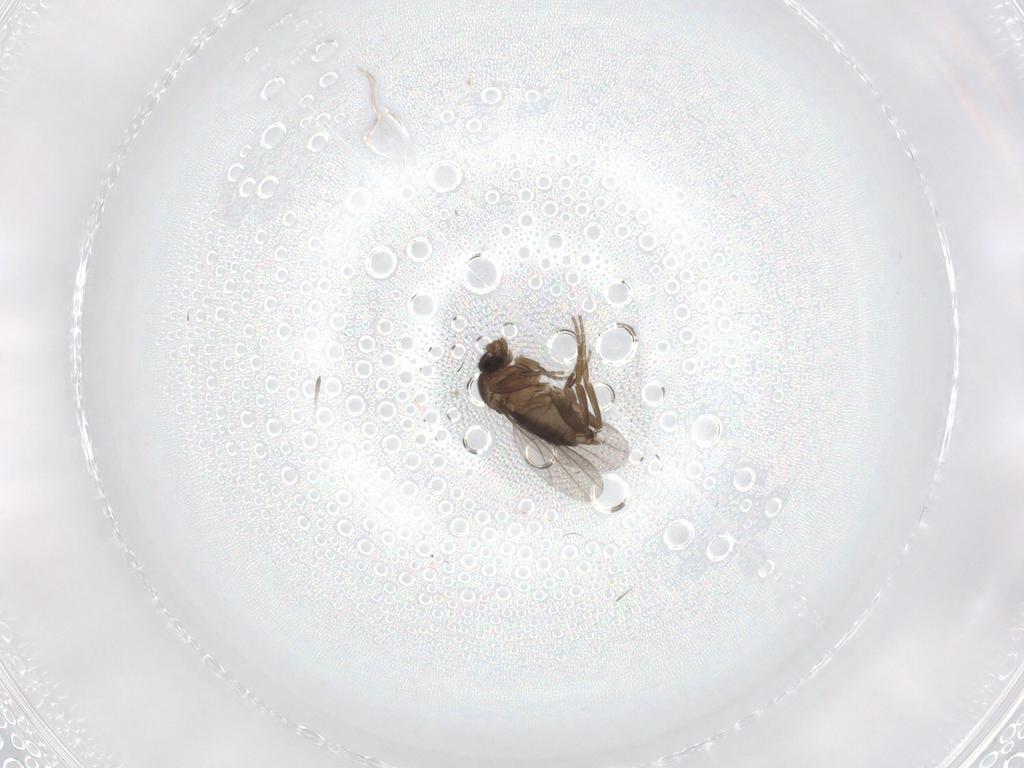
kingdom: Animalia
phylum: Arthropoda
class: Insecta
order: Diptera
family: Phoridae
